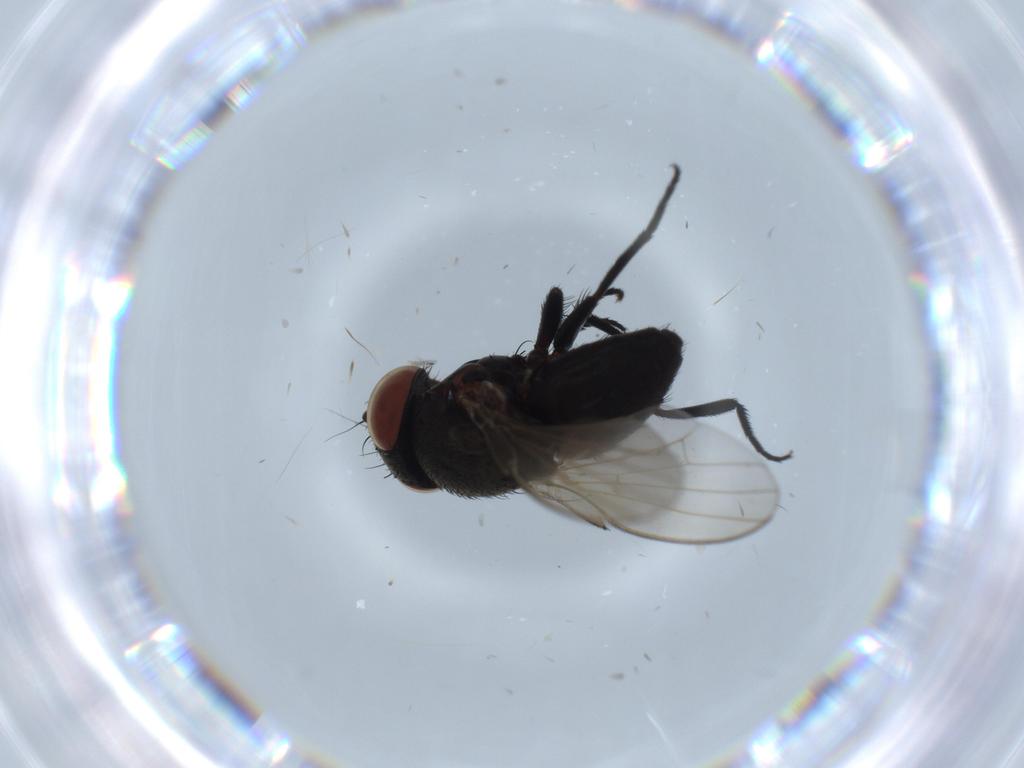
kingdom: Animalia
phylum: Arthropoda
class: Insecta
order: Diptera
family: Milichiidae
